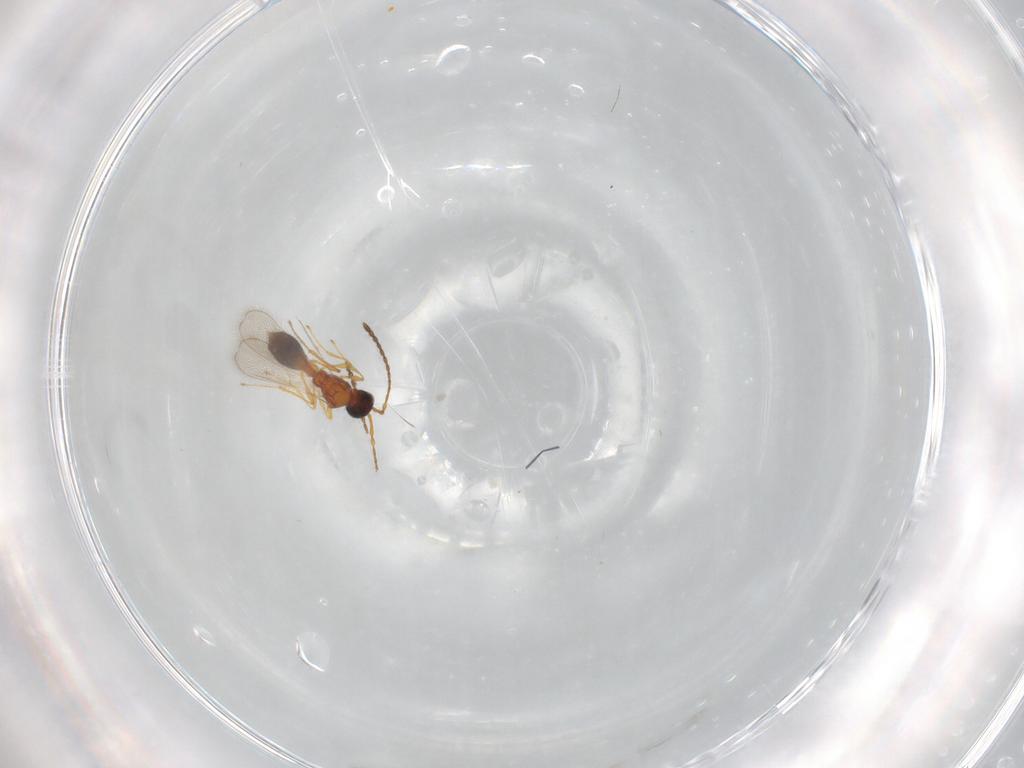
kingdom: Animalia
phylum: Arthropoda
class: Insecta
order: Hymenoptera
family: Diapriidae
